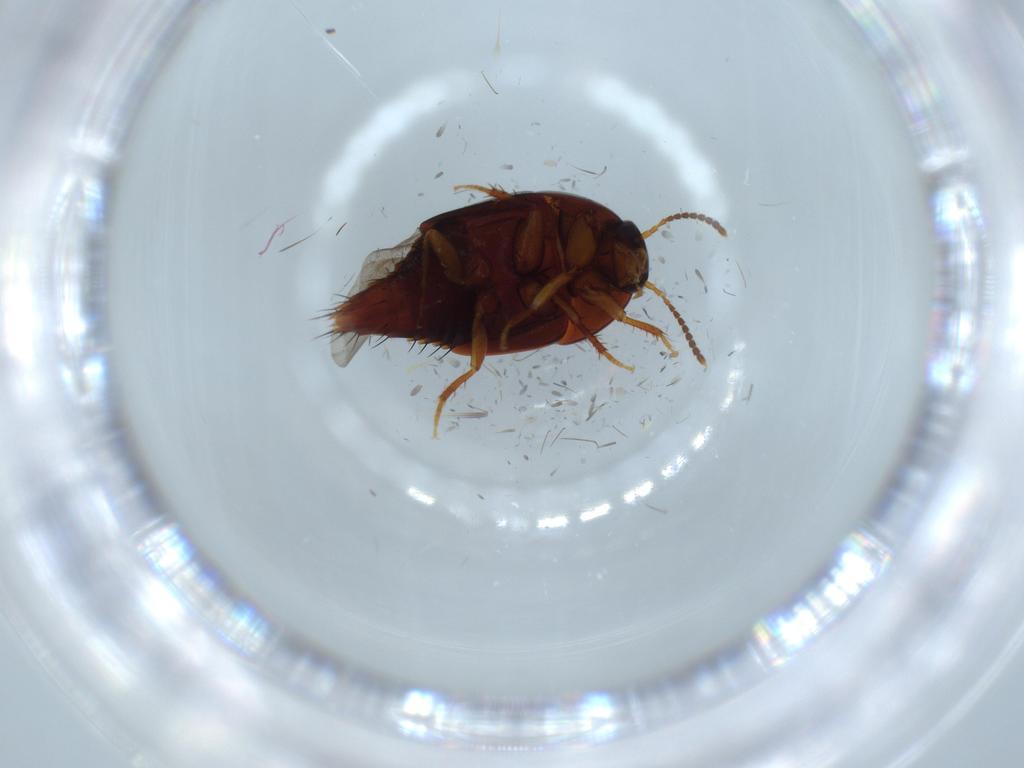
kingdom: Animalia
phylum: Arthropoda
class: Insecta
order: Coleoptera
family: Staphylinidae
